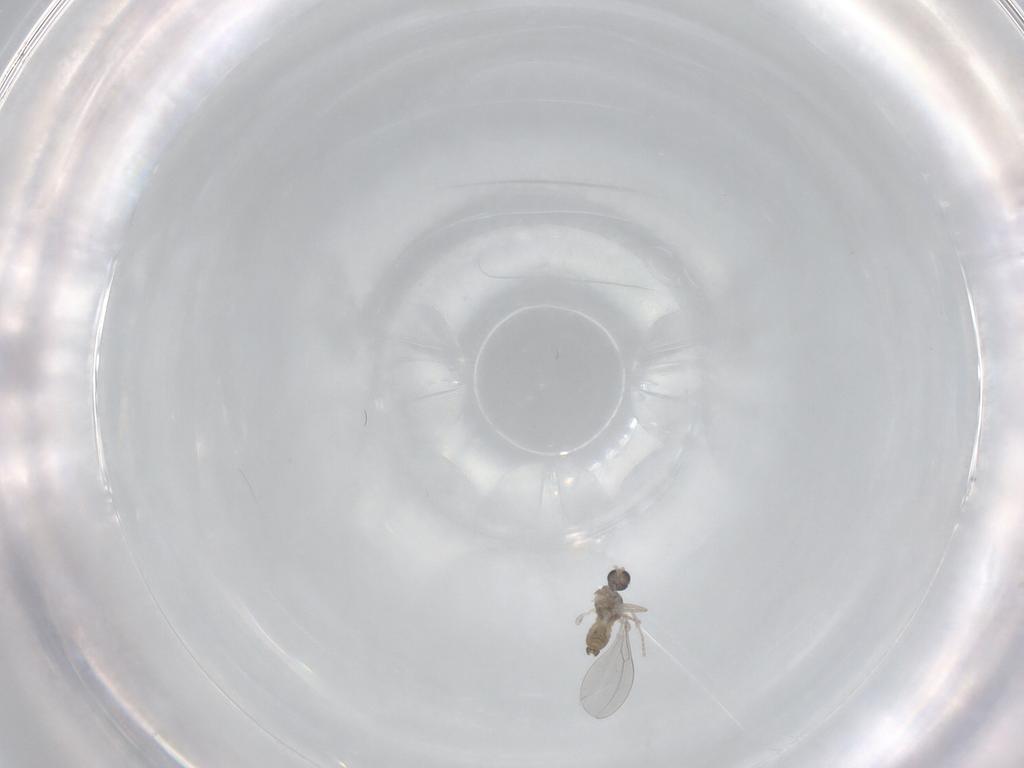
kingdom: Animalia
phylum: Arthropoda
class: Insecta
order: Diptera
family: Cecidomyiidae
